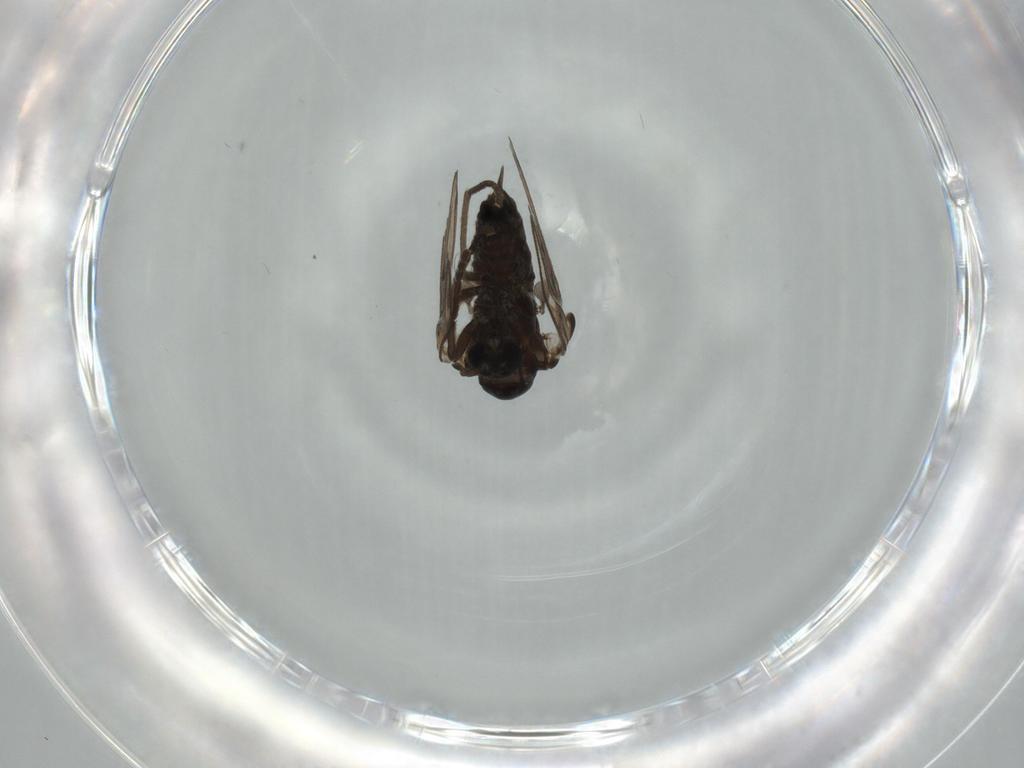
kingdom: Animalia
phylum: Arthropoda
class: Insecta
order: Diptera
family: Psychodidae
